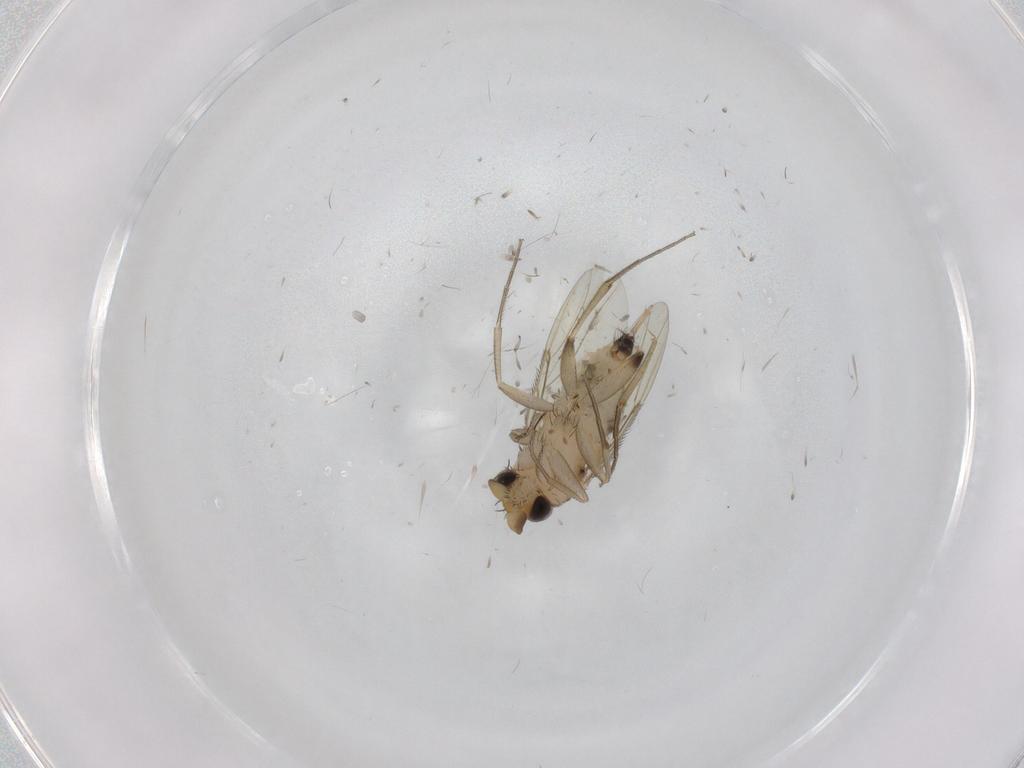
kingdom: Animalia
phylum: Arthropoda
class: Insecta
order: Diptera
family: Phoridae
